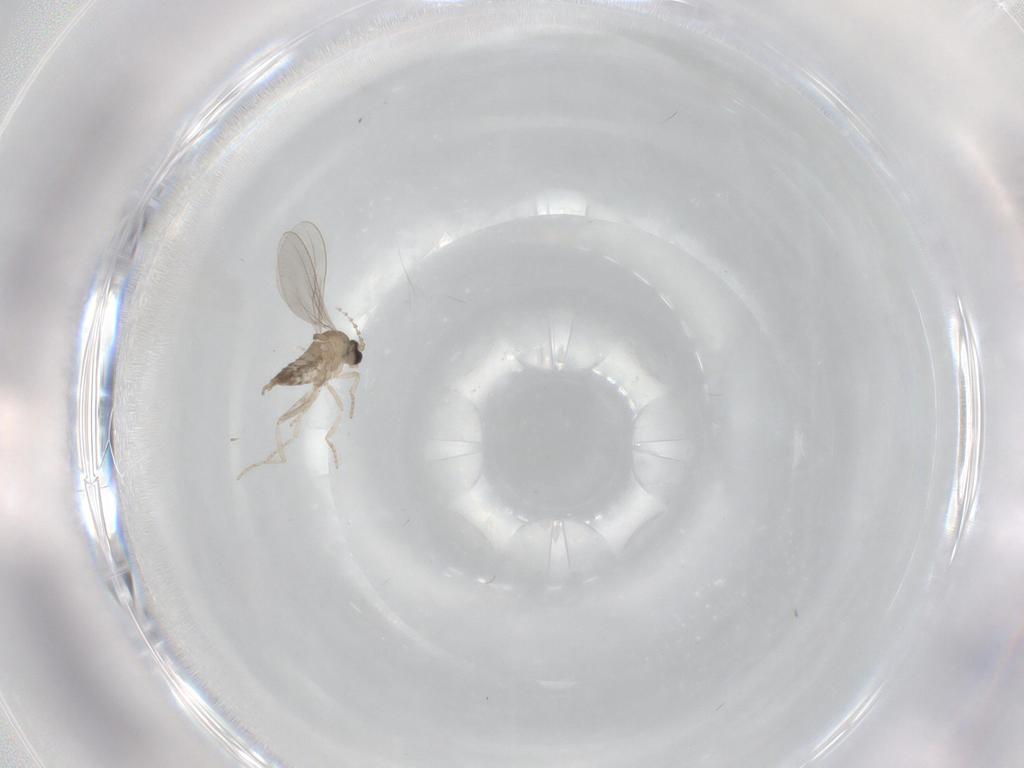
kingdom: Animalia
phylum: Arthropoda
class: Insecta
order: Diptera
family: Cecidomyiidae
